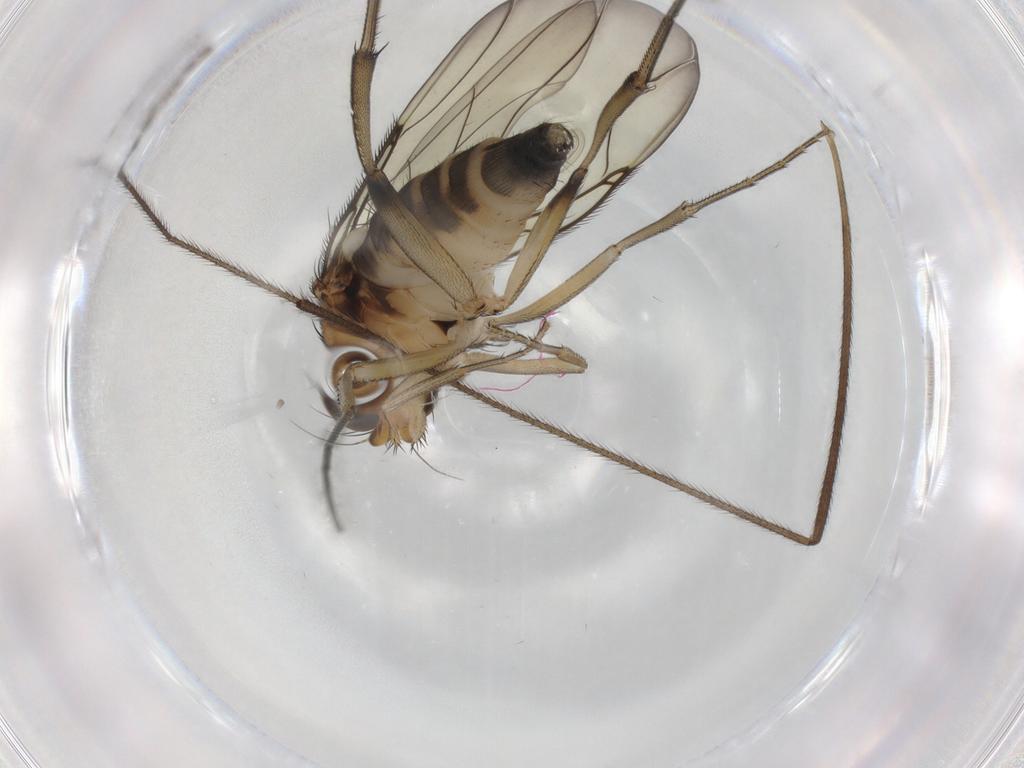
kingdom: Animalia
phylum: Arthropoda
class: Insecta
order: Diptera
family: Phoridae
